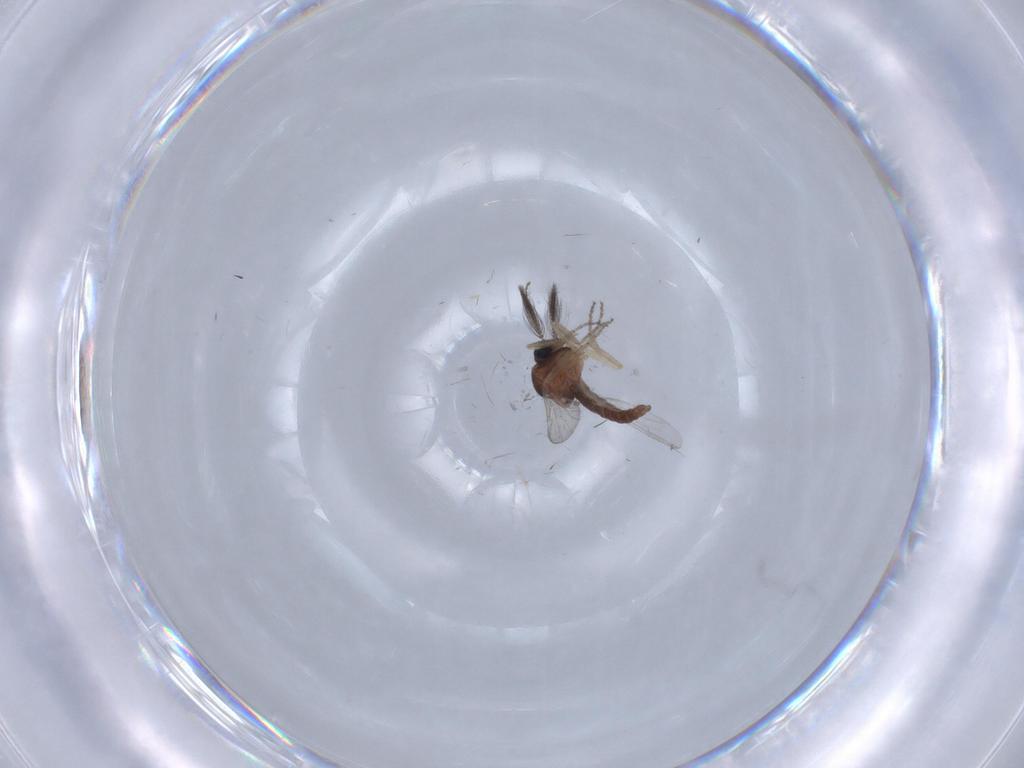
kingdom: Animalia
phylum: Arthropoda
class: Insecta
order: Diptera
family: Ceratopogonidae
